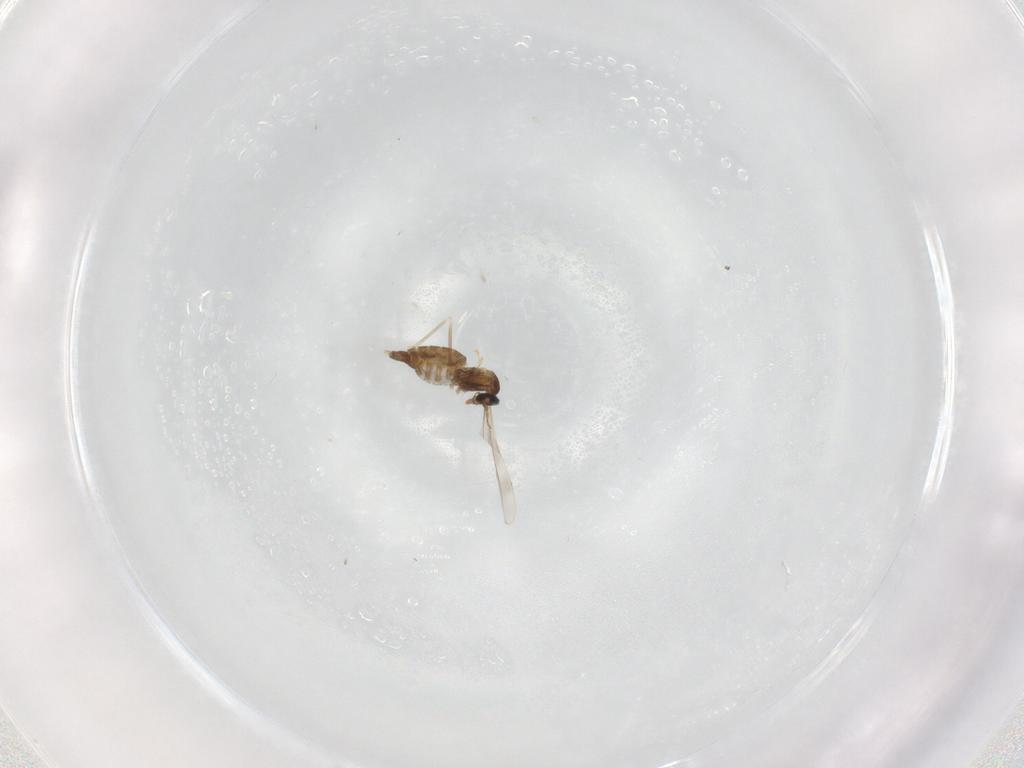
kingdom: Animalia
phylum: Arthropoda
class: Insecta
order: Diptera
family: Cecidomyiidae
